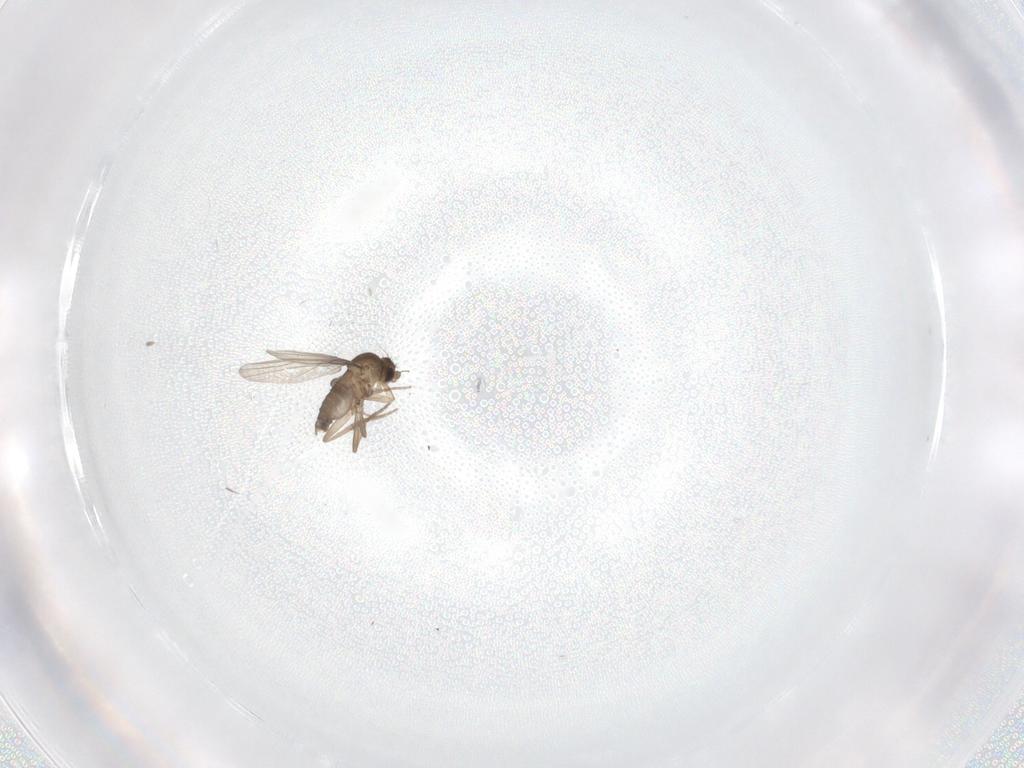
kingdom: Animalia
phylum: Arthropoda
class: Insecta
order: Diptera
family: Phoridae
